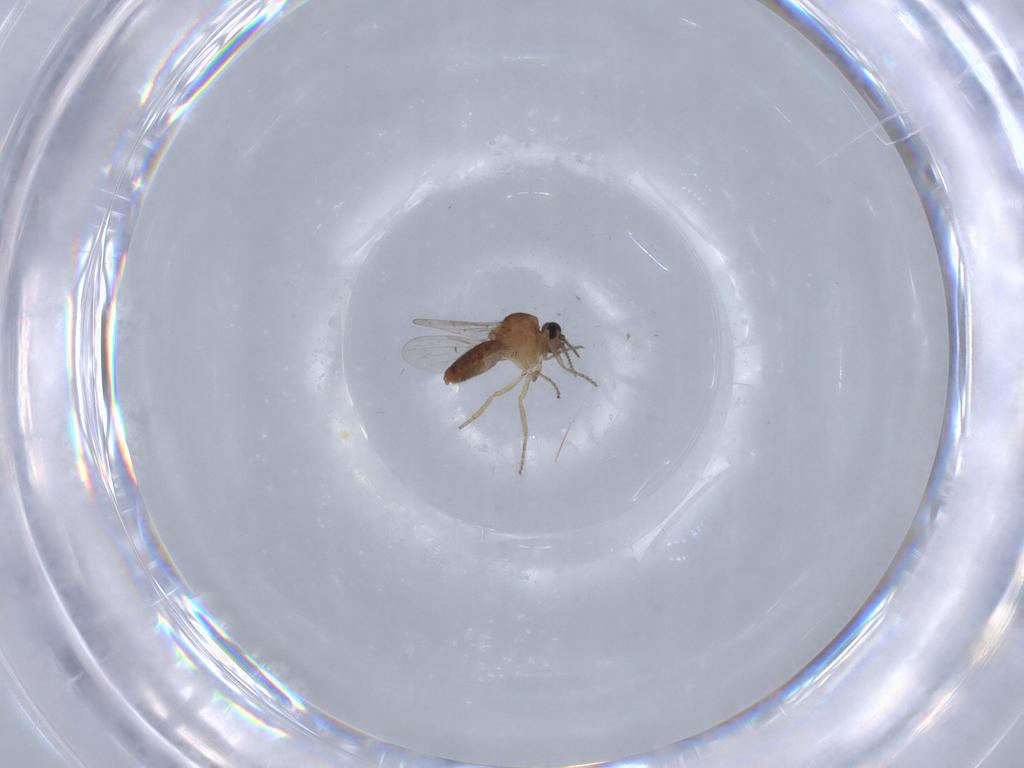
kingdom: Animalia
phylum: Arthropoda
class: Insecta
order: Diptera
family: Ceratopogonidae
